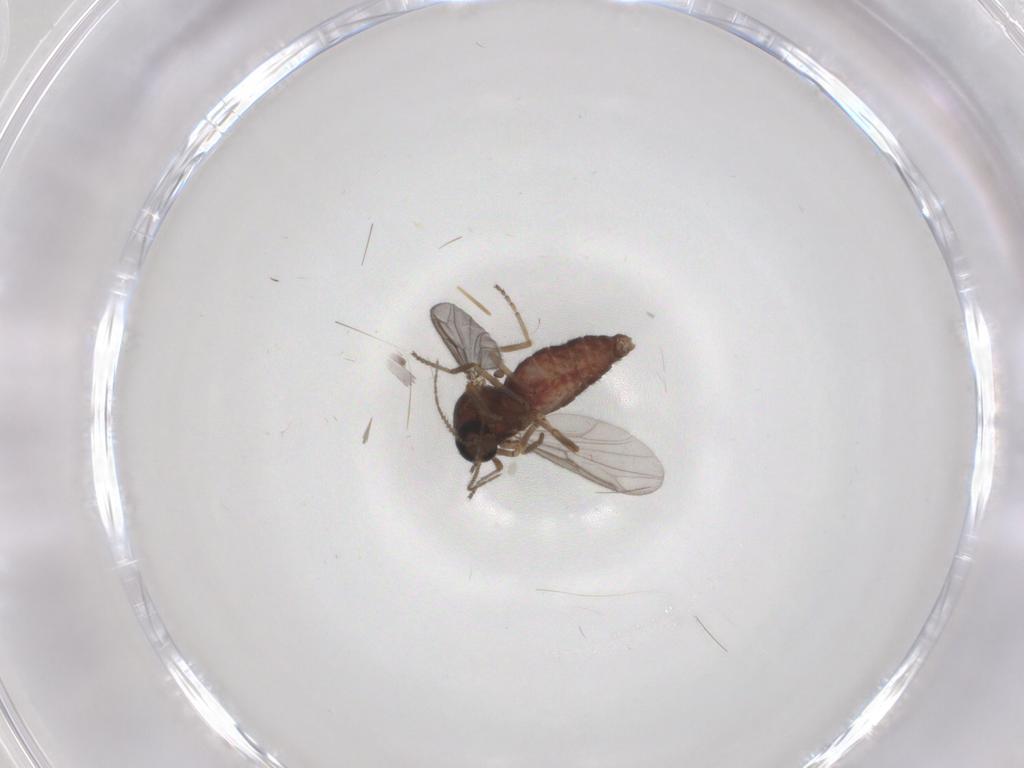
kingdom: Animalia
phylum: Arthropoda
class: Insecta
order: Diptera
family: Ceratopogonidae
